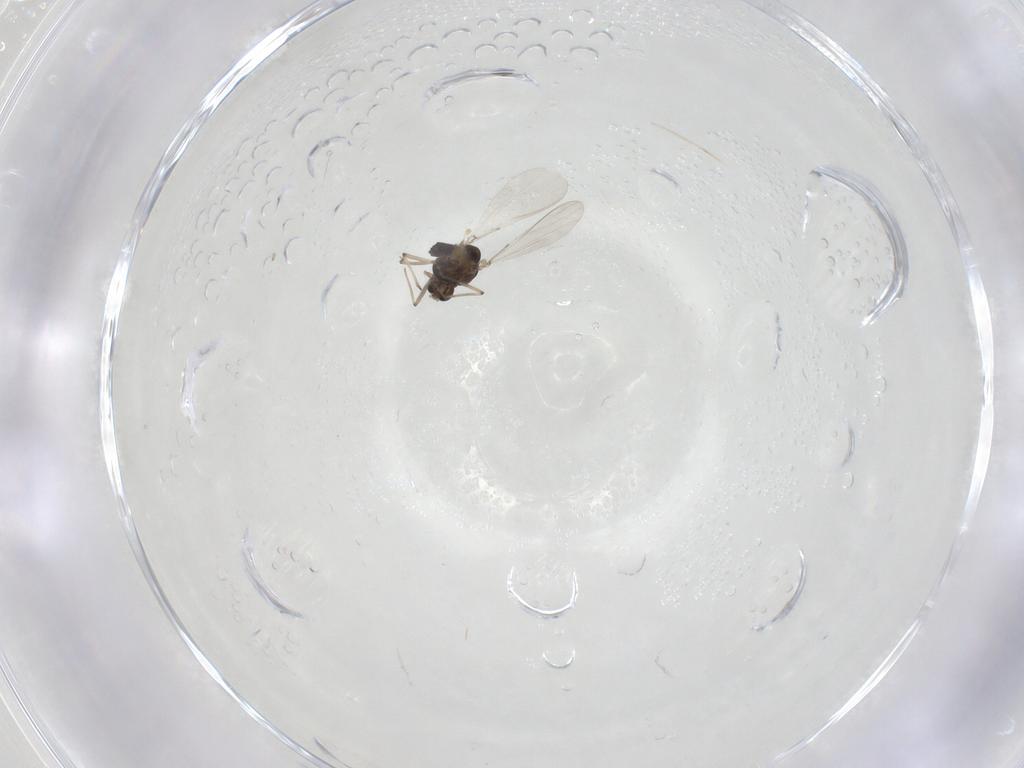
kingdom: Animalia
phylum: Arthropoda
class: Insecta
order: Diptera
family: Chironomidae
